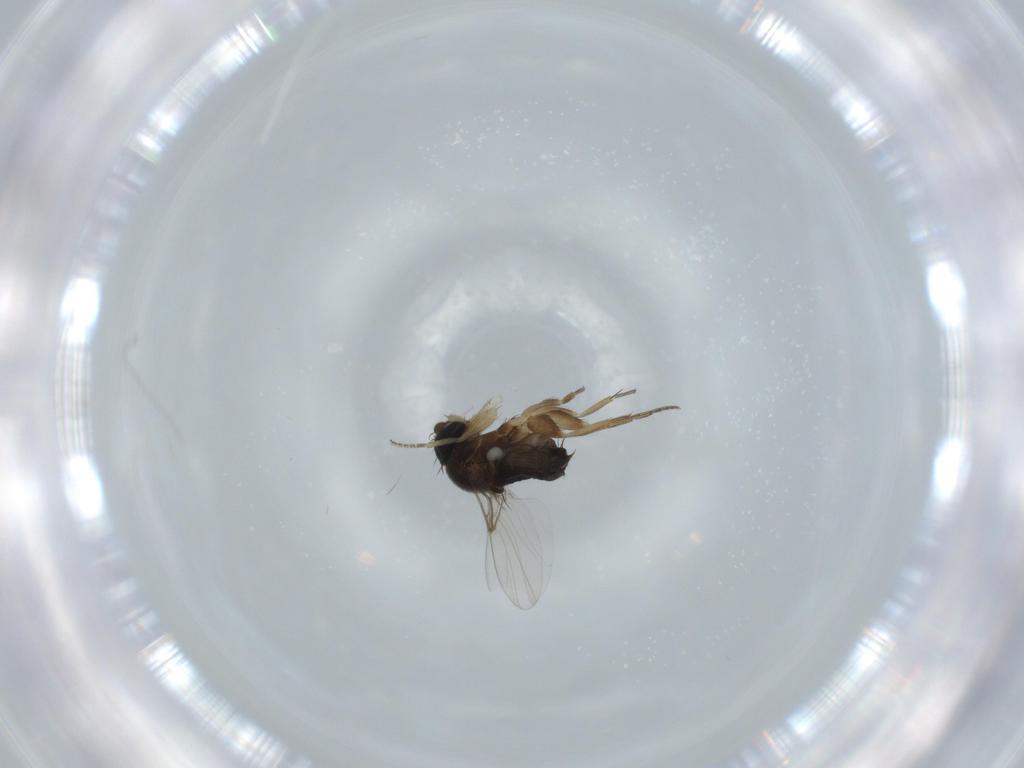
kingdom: Animalia
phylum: Arthropoda
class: Insecta
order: Diptera
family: Phoridae
